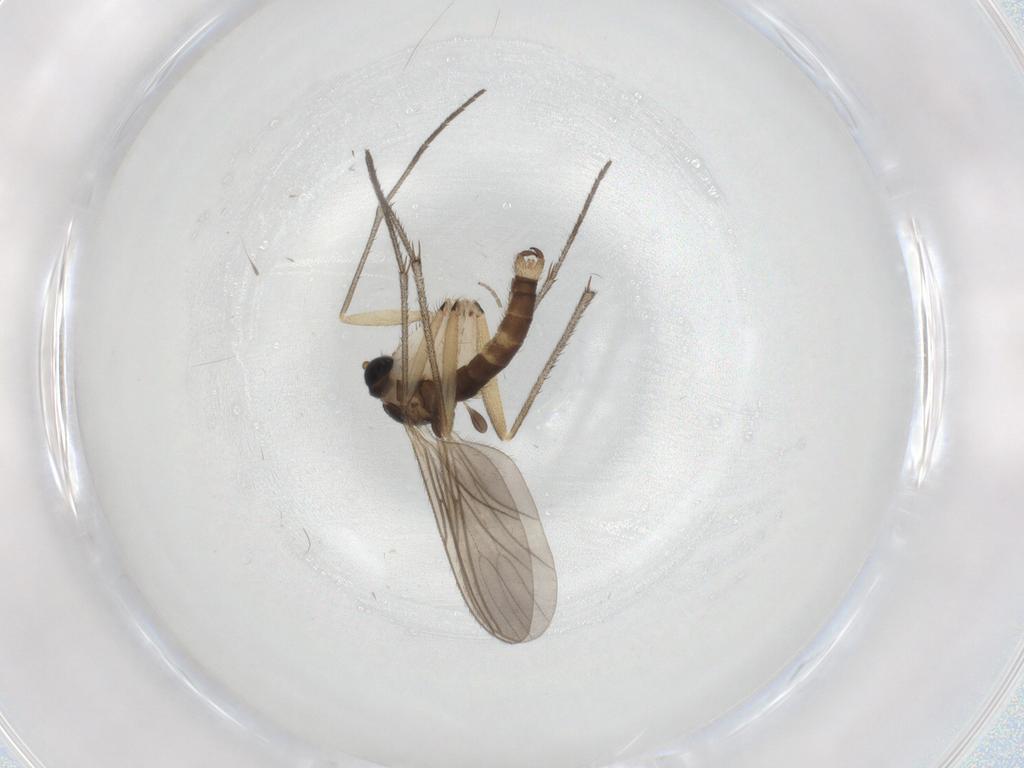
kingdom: Animalia
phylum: Arthropoda
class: Insecta
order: Diptera
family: Sciaridae
